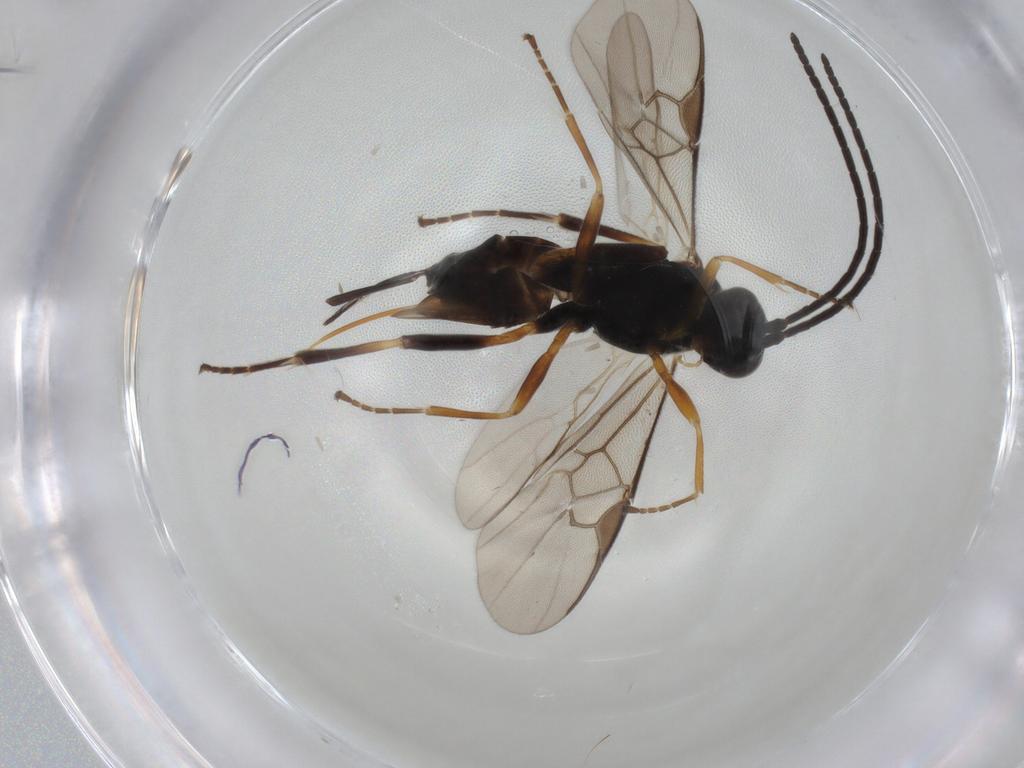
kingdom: Animalia
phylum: Arthropoda
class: Insecta
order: Hymenoptera
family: Braconidae
